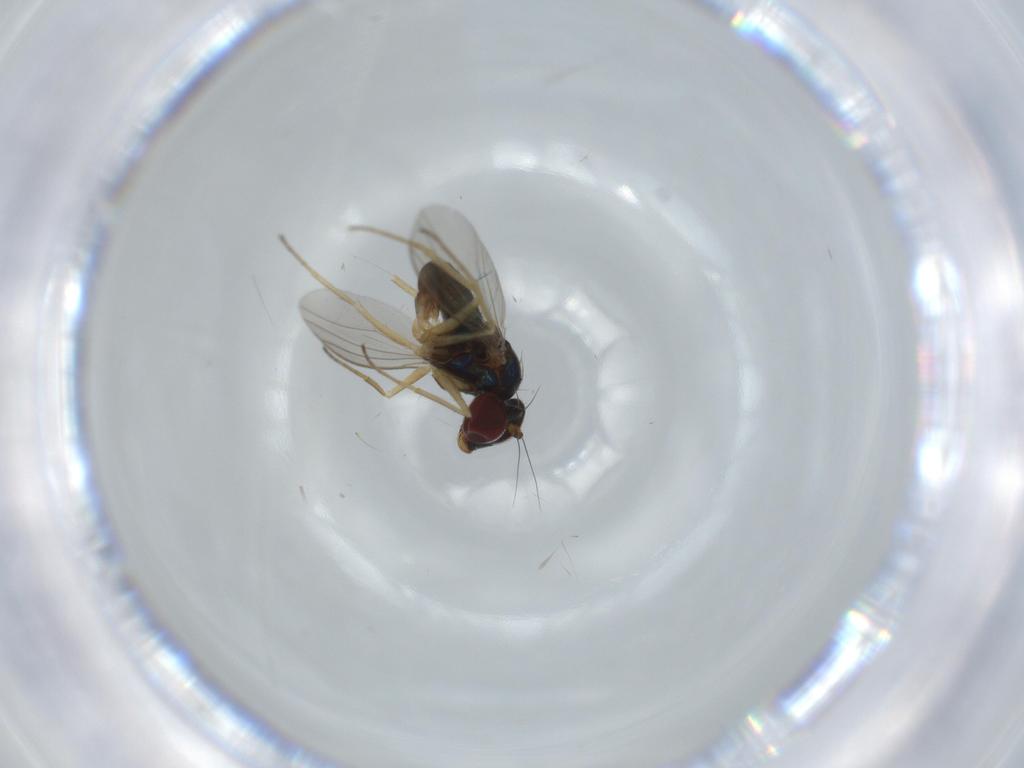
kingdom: Animalia
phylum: Arthropoda
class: Insecta
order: Diptera
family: Dolichopodidae
